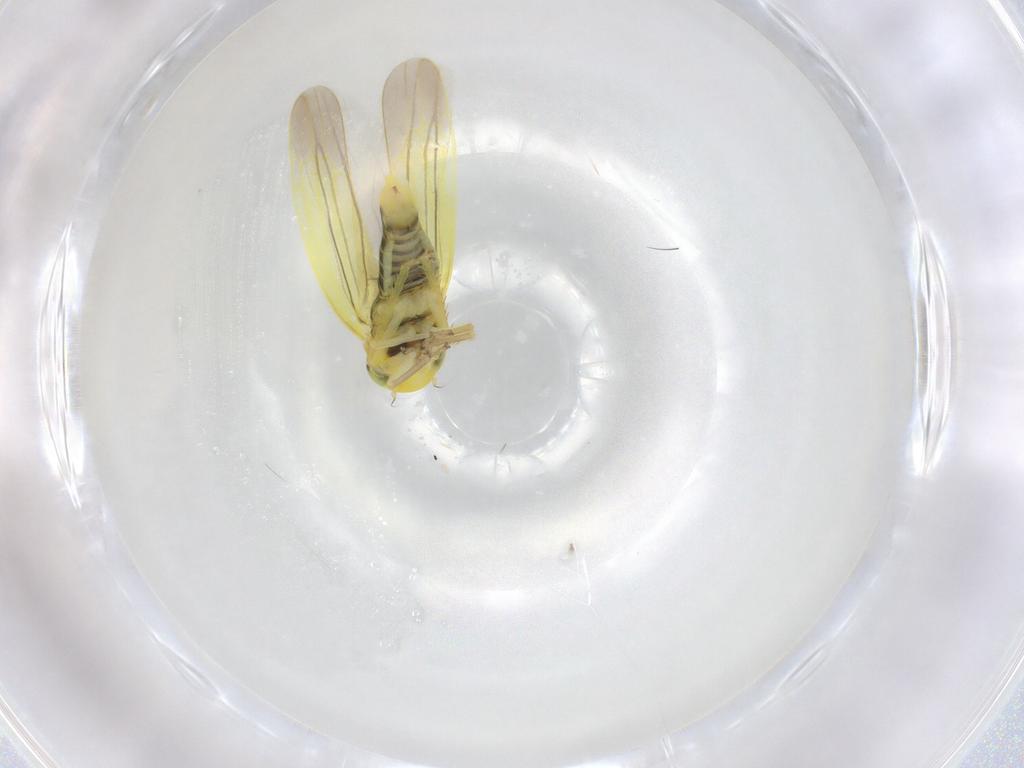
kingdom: Animalia
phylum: Arthropoda
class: Insecta
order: Hemiptera
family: Cicadellidae
